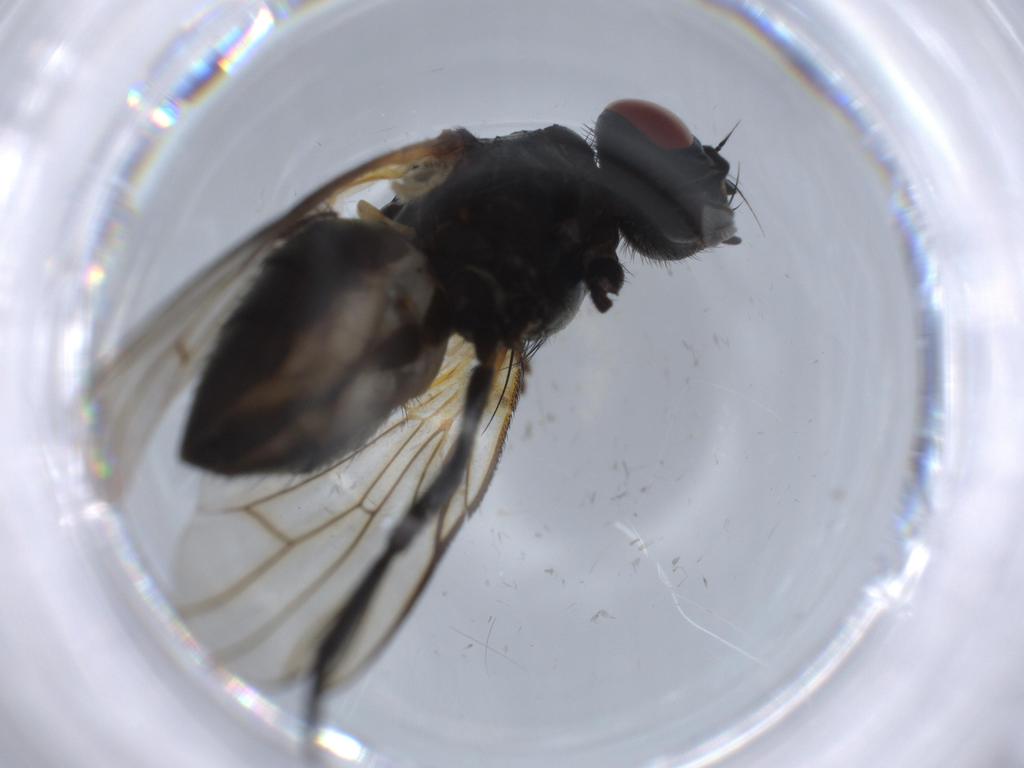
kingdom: Animalia
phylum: Arthropoda
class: Insecta
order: Diptera
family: Muscidae
